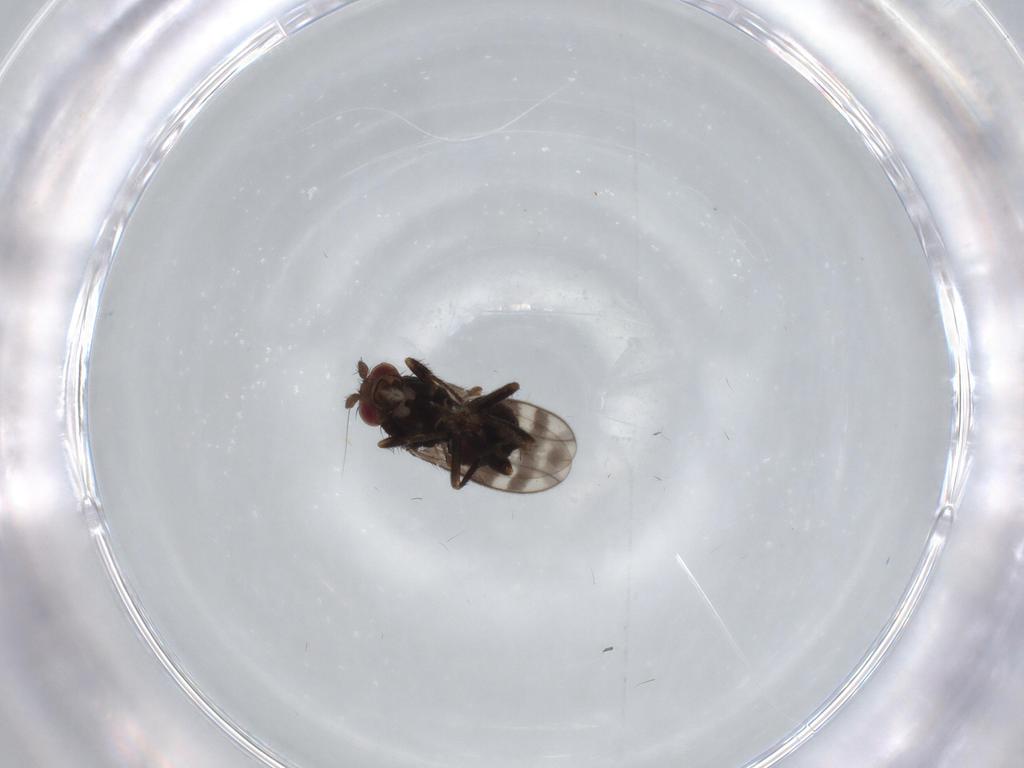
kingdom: Animalia
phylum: Arthropoda
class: Insecta
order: Diptera
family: Sphaeroceridae
